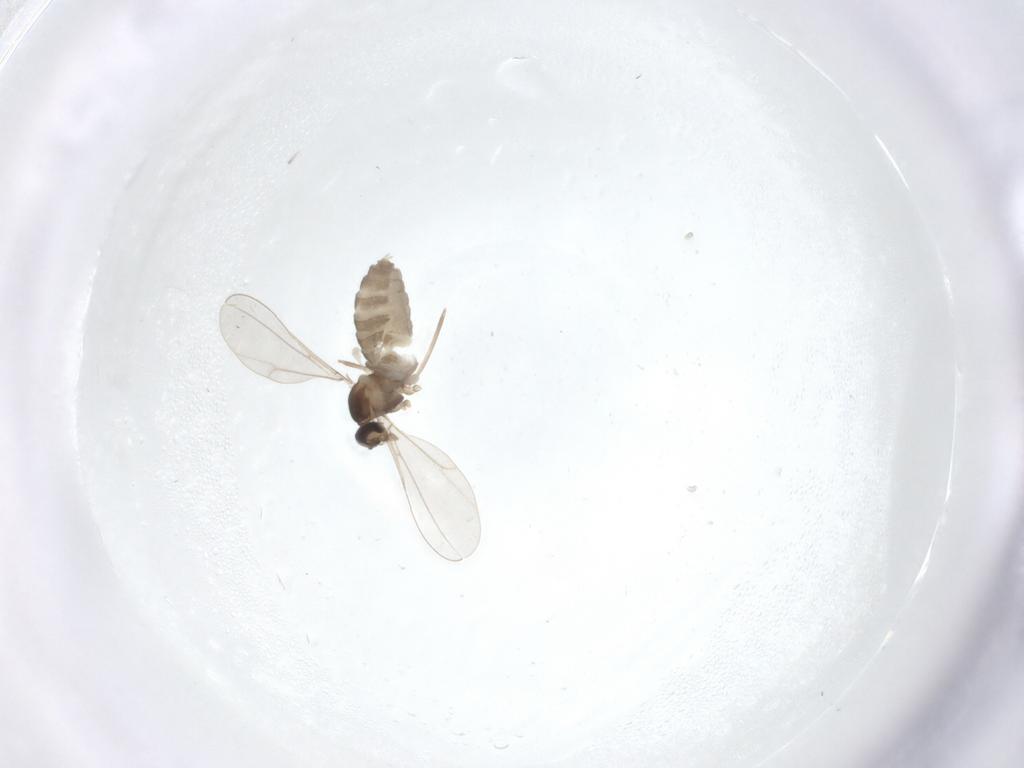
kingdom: Animalia
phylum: Arthropoda
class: Insecta
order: Diptera
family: Cecidomyiidae
